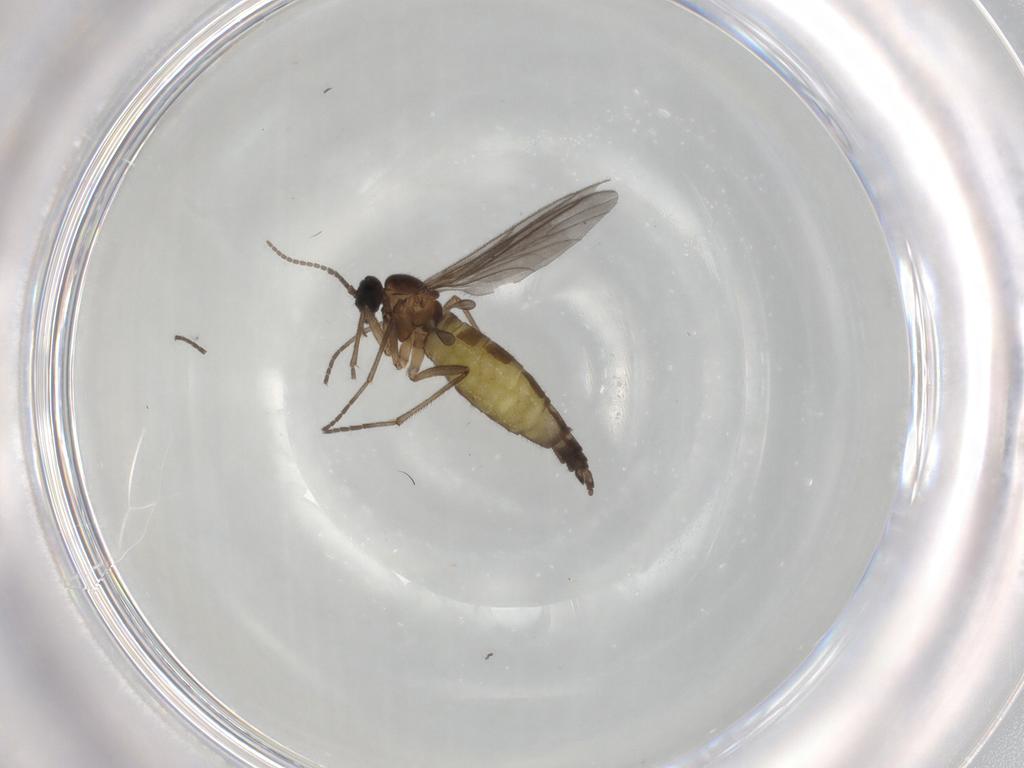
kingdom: Animalia
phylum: Arthropoda
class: Insecta
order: Diptera
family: Sciaridae
